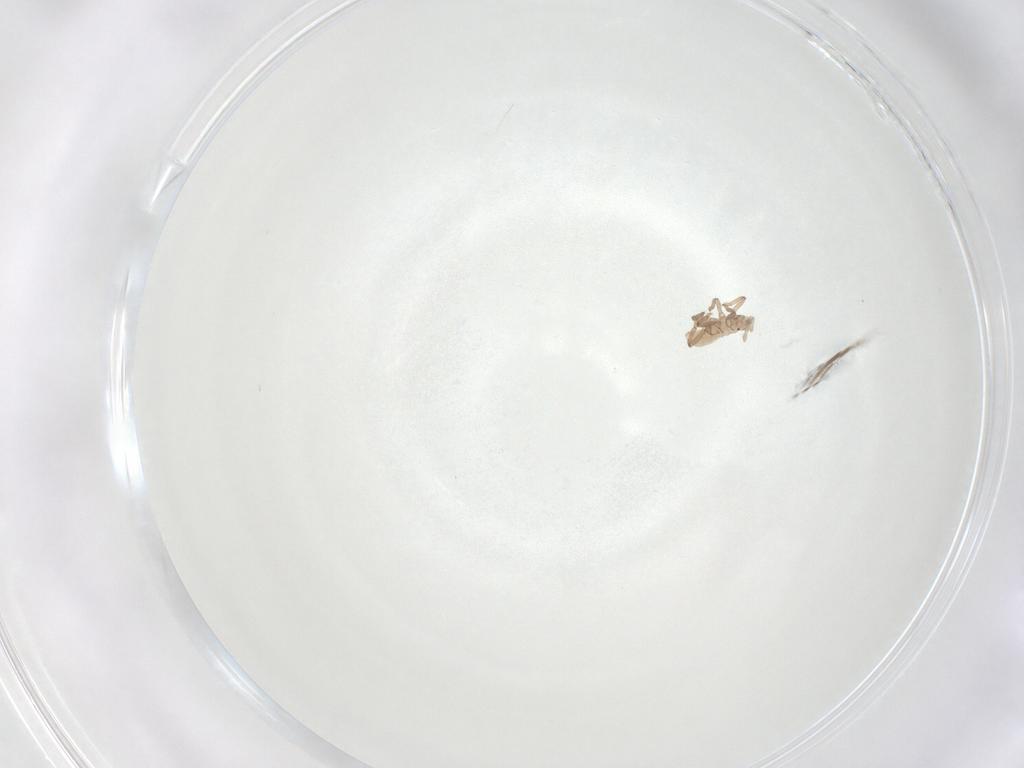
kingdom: Animalia
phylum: Arthropoda
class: Insecta
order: Hemiptera
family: Aphididae
